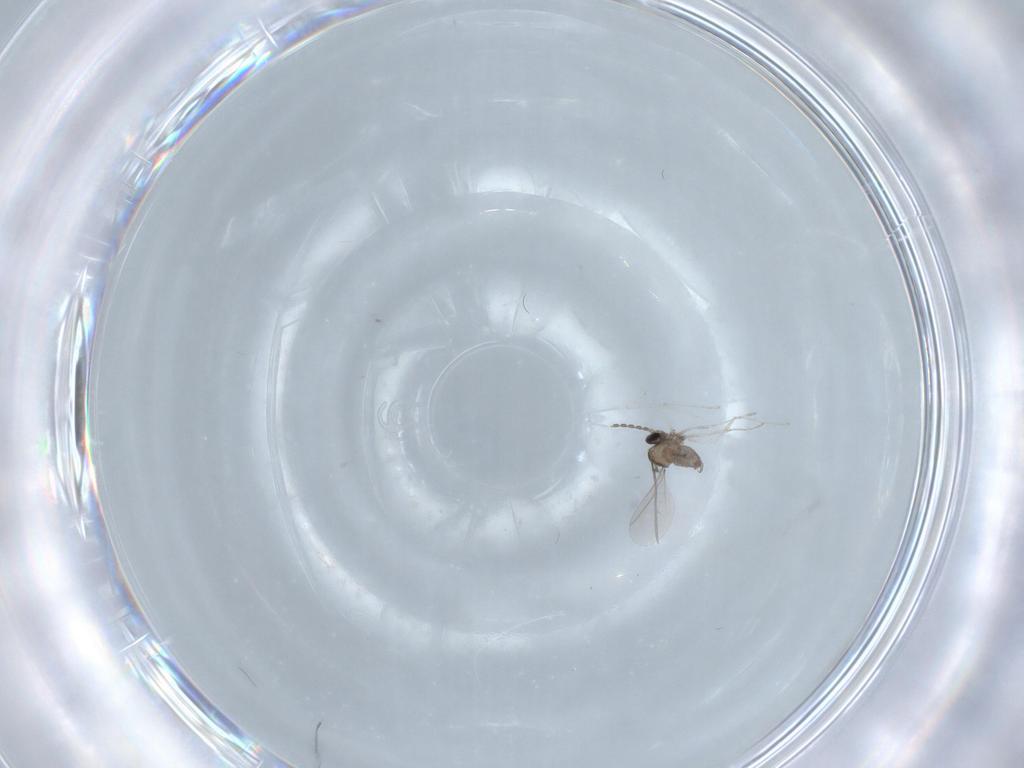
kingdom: Animalia
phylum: Arthropoda
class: Insecta
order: Diptera
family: Chironomidae
